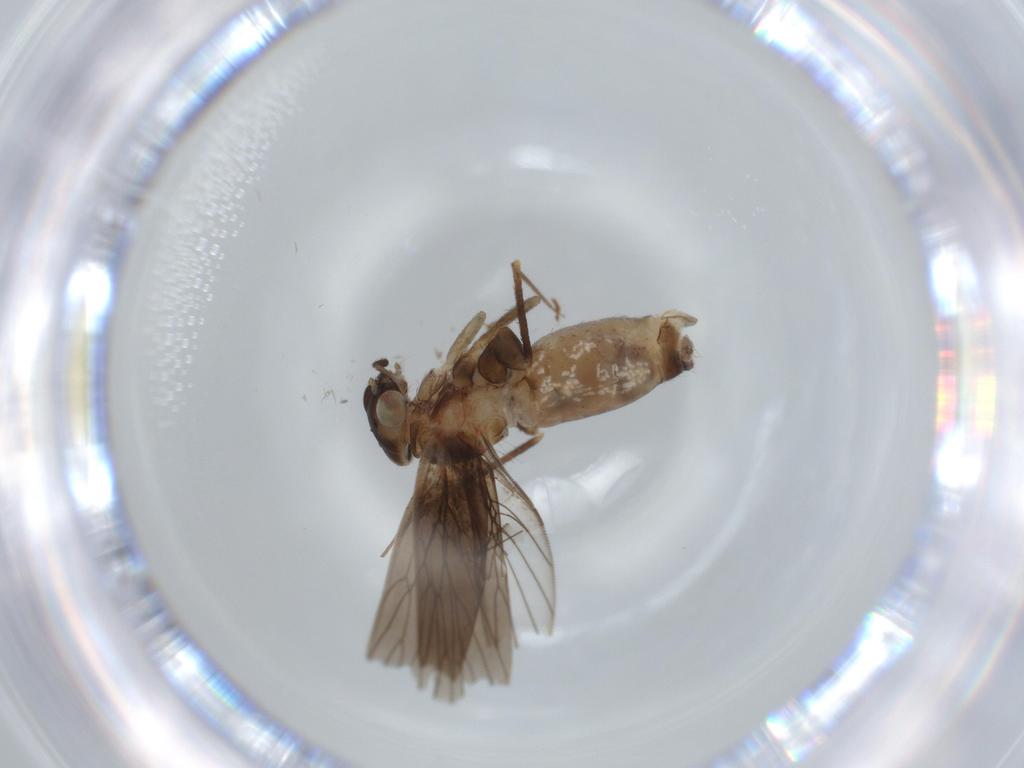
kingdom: Animalia
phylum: Arthropoda
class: Insecta
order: Psocodea
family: Lepidopsocidae
